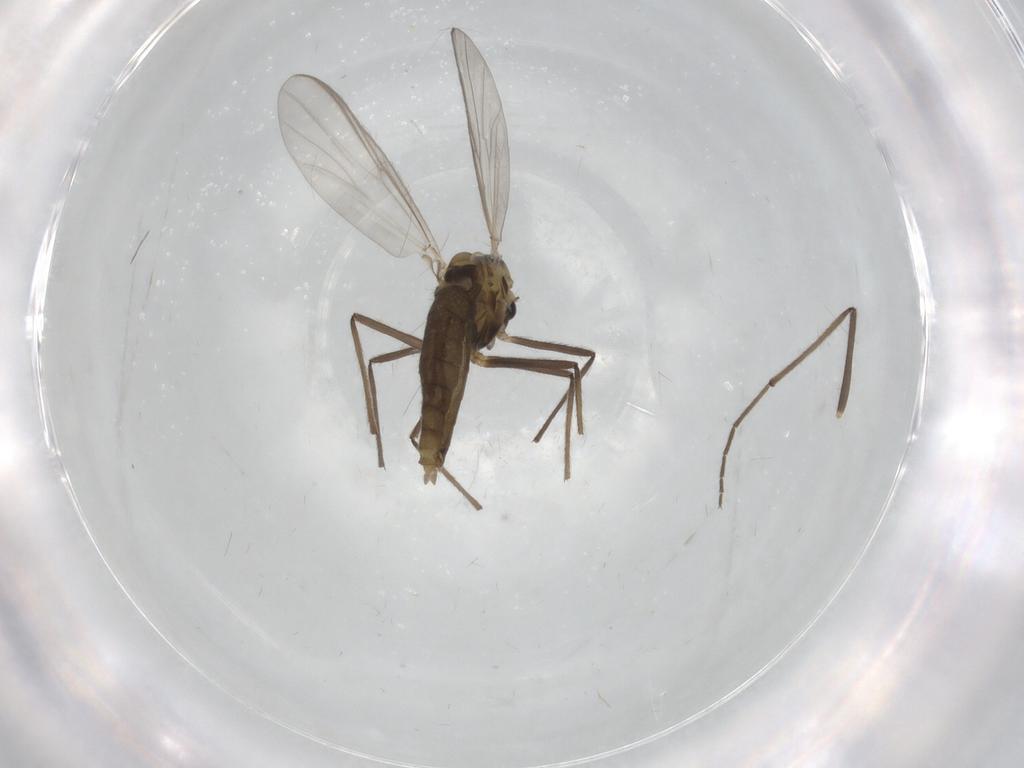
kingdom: Animalia
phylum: Arthropoda
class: Insecta
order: Diptera
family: Chironomidae
